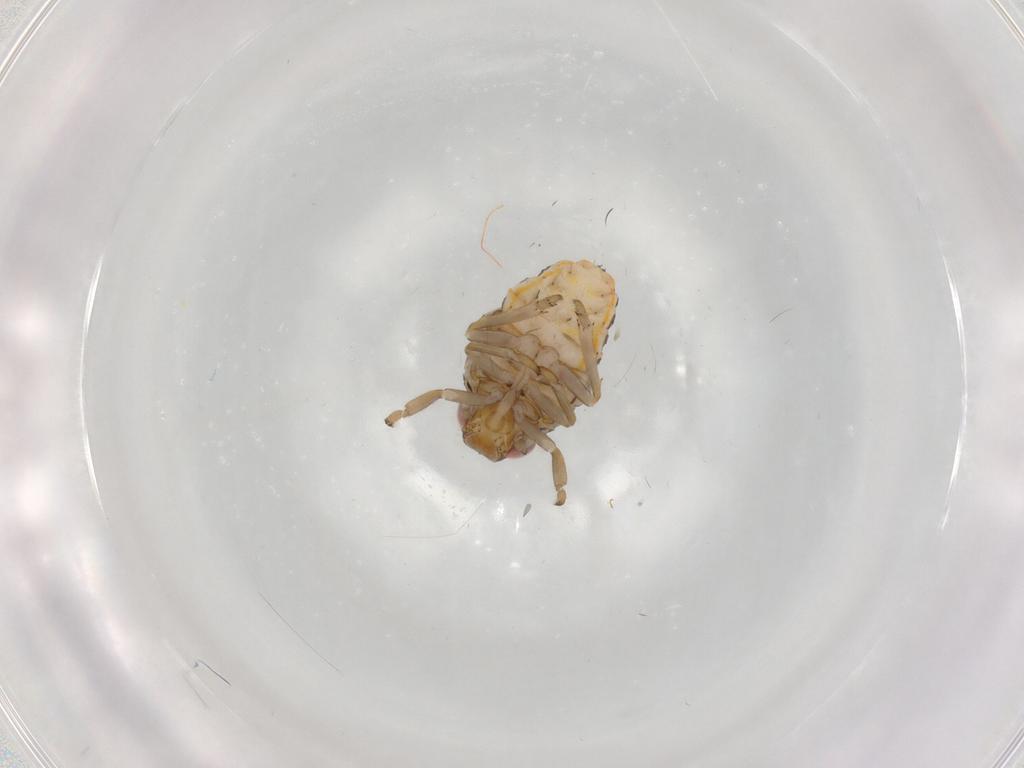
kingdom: Animalia
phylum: Arthropoda
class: Insecta
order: Hemiptera
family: Issidae
